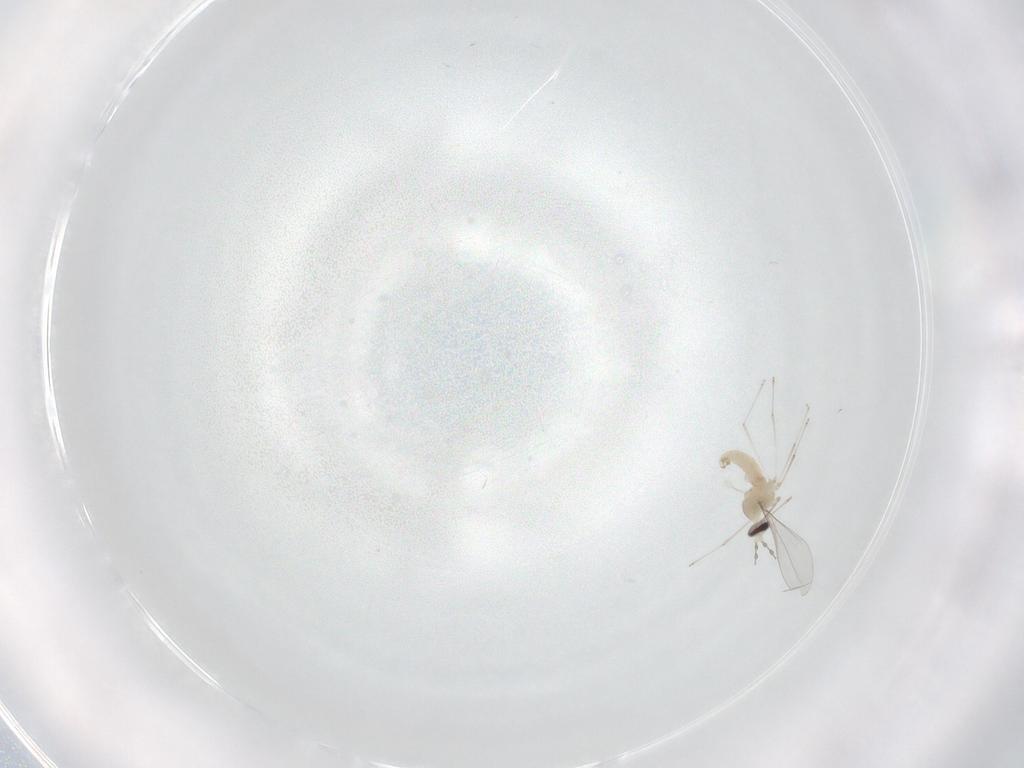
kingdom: Animalia
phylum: Arthropoda
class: Insecta
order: Diptera
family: Cecidomyiidae
